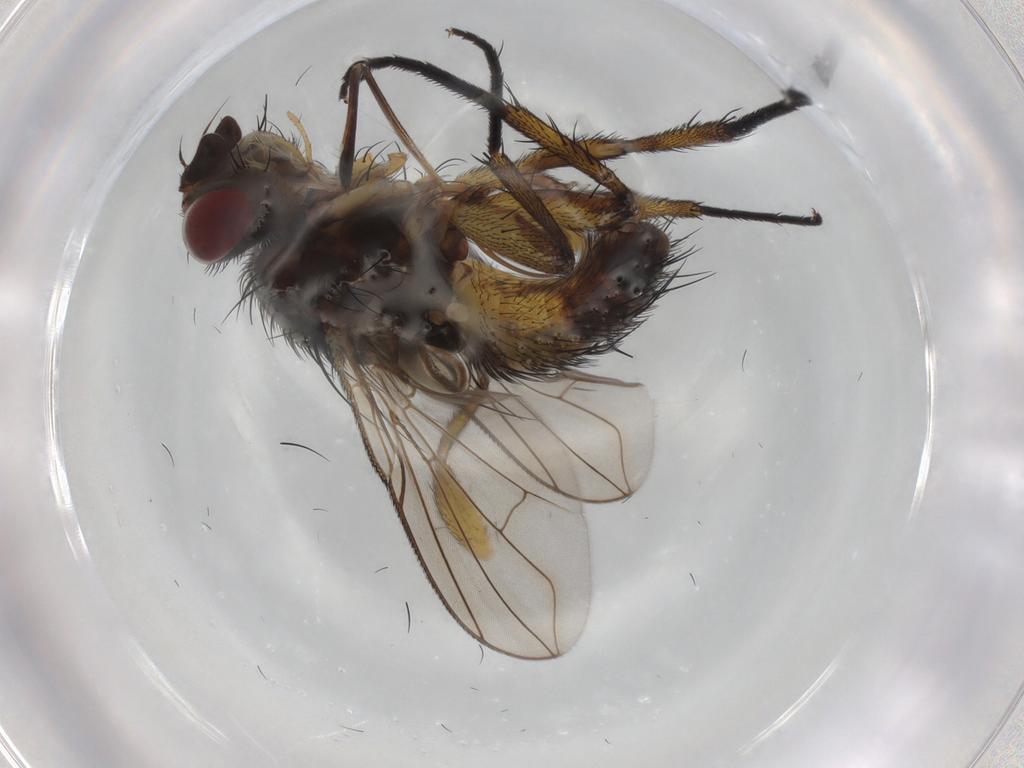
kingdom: Animalia
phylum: Arthropoda
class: Insecta
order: Diptera
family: Tachinidae
